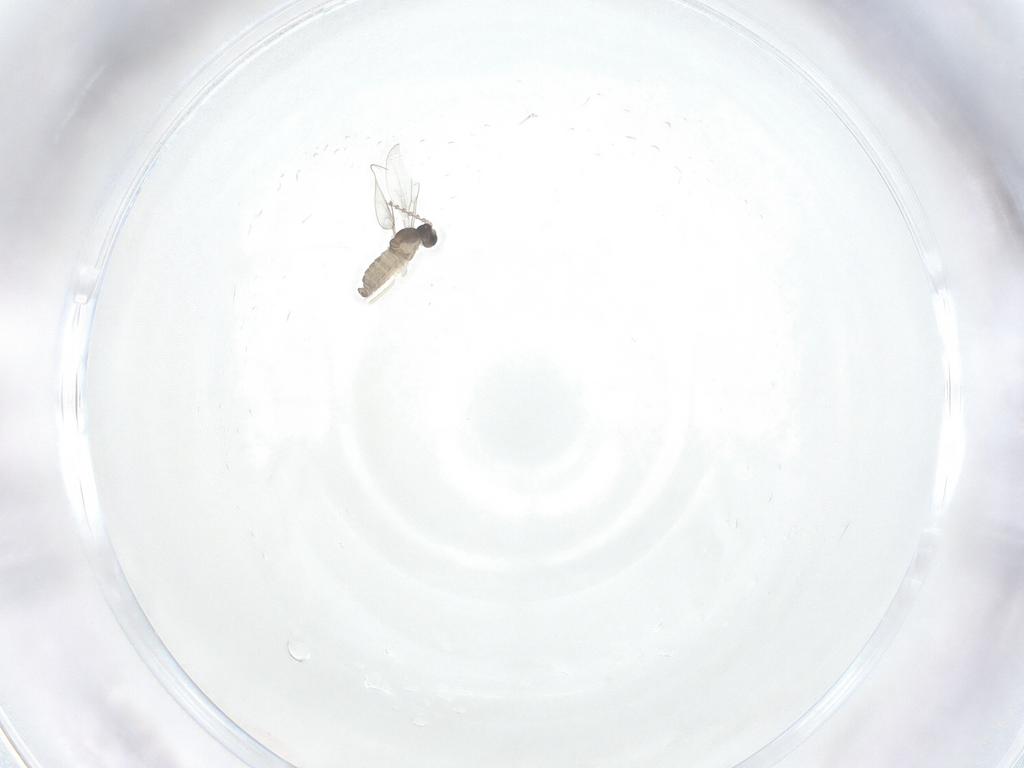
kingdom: Animalia
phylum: Arthropoda
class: Insecta
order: Diptera
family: Cecidomyiidae
